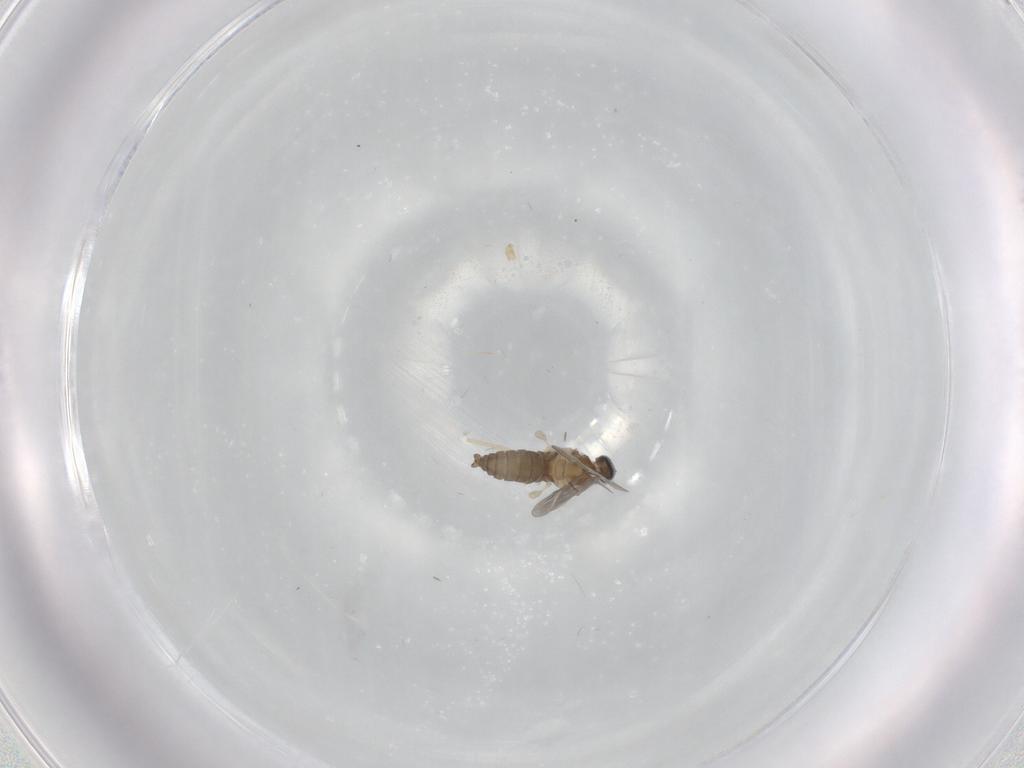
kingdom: Animalia
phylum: Arthropoda
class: Insecta
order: Diptera
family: Cecidomyiidae
